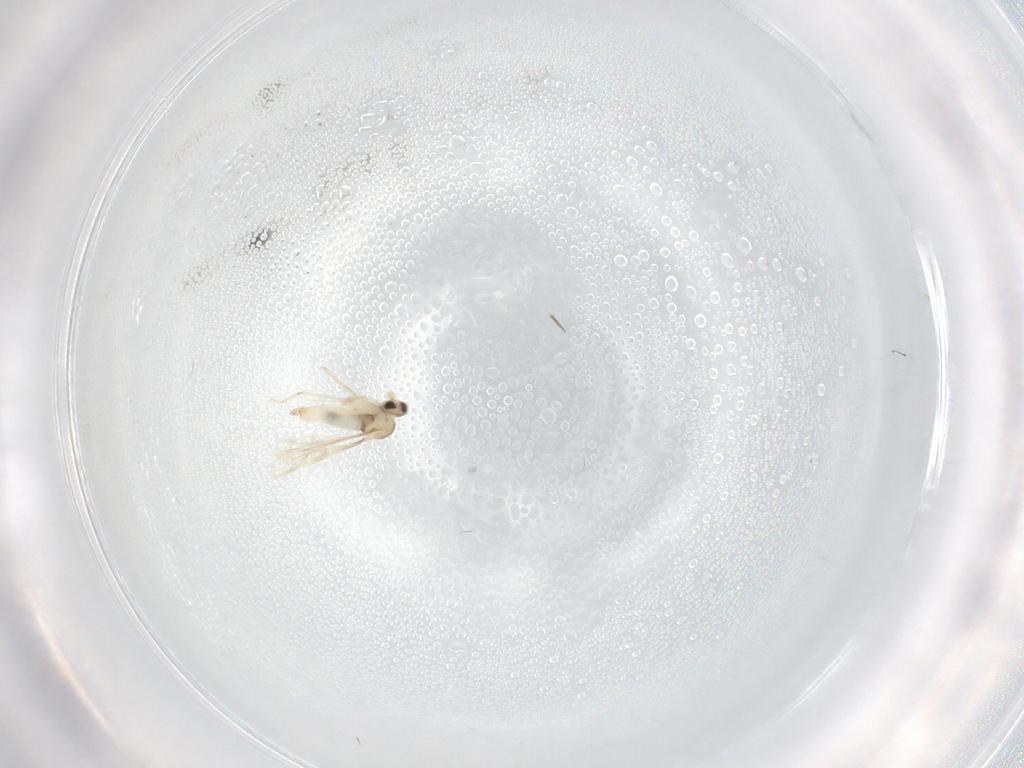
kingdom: Animalia
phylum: Arthropoda
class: Insecta
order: Diptera
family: Cecidomyiidae
